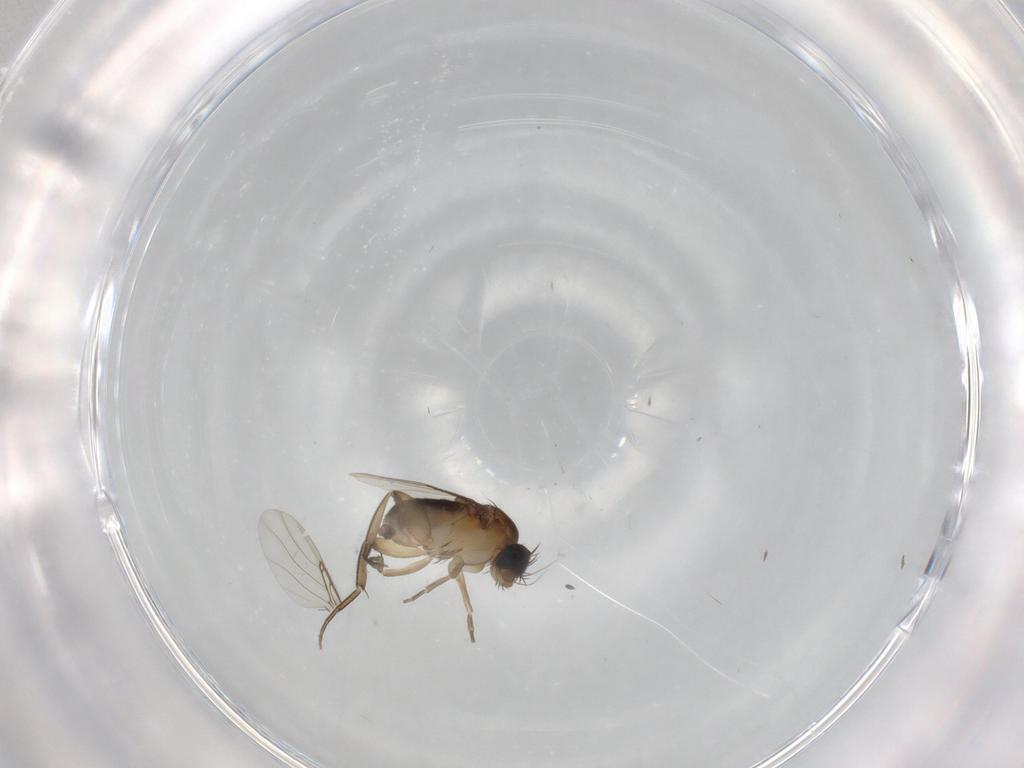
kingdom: Animalia
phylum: Arthropoda
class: Insecta
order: Diptera
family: Phoridae
